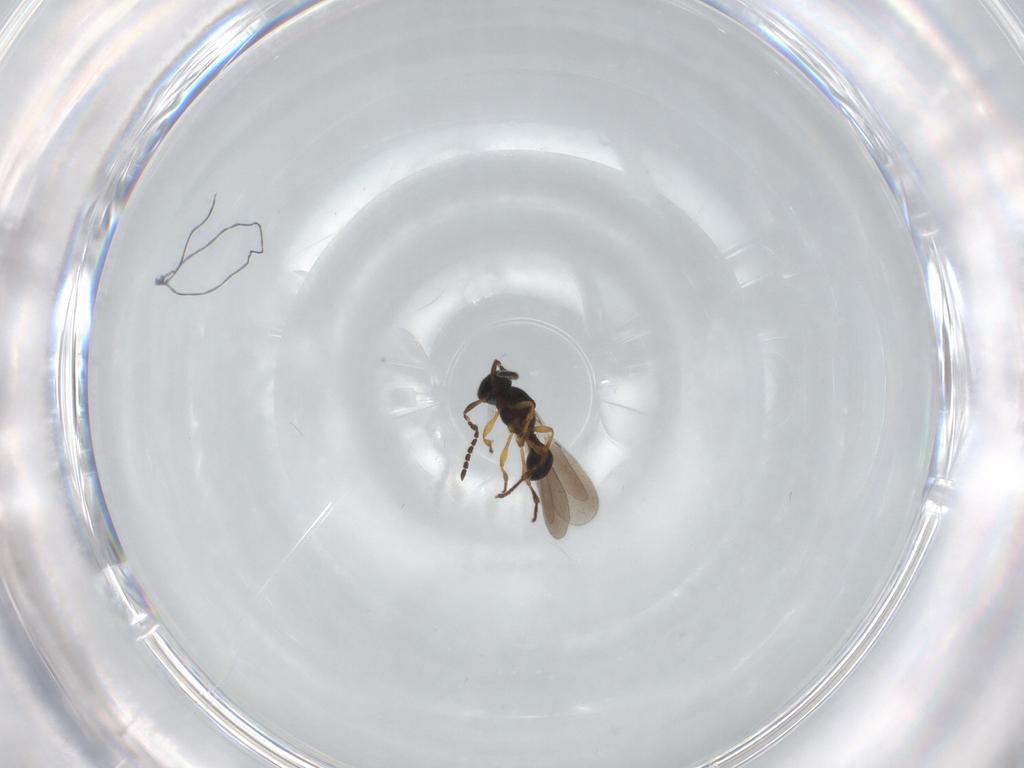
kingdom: Animalia
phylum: Arthropoda
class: Insecta
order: Hymenoptera
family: Platygastridae
